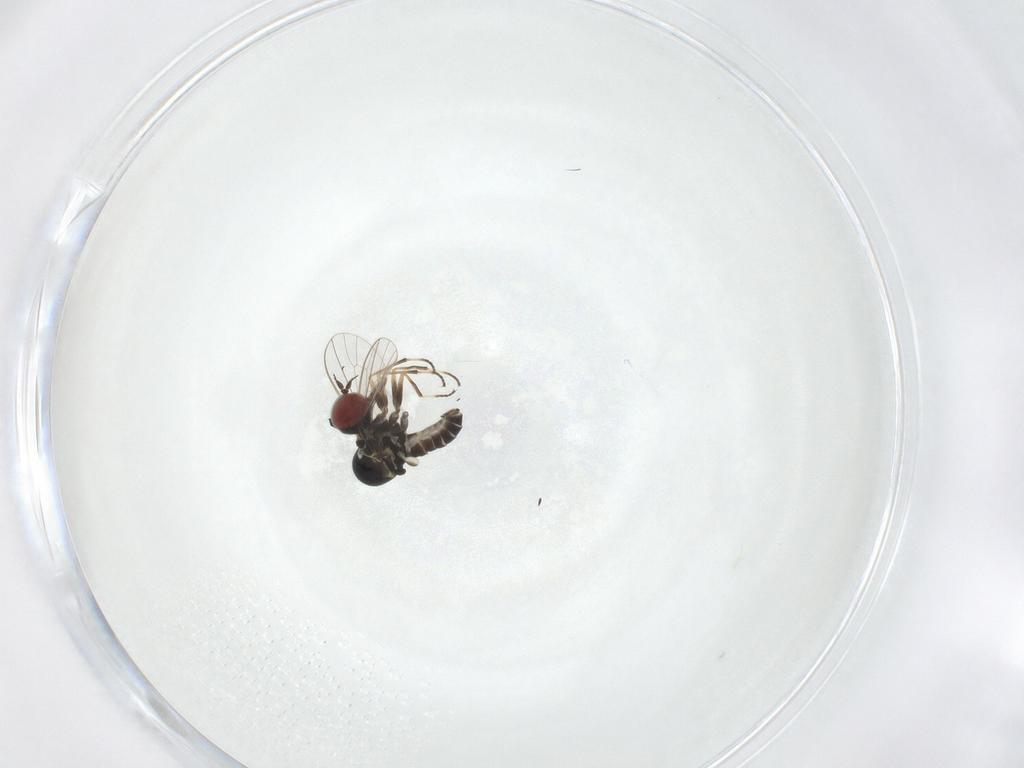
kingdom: Animalia
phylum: Arthropoda
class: Insecta
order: Diptera
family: Mythicomyiidae
